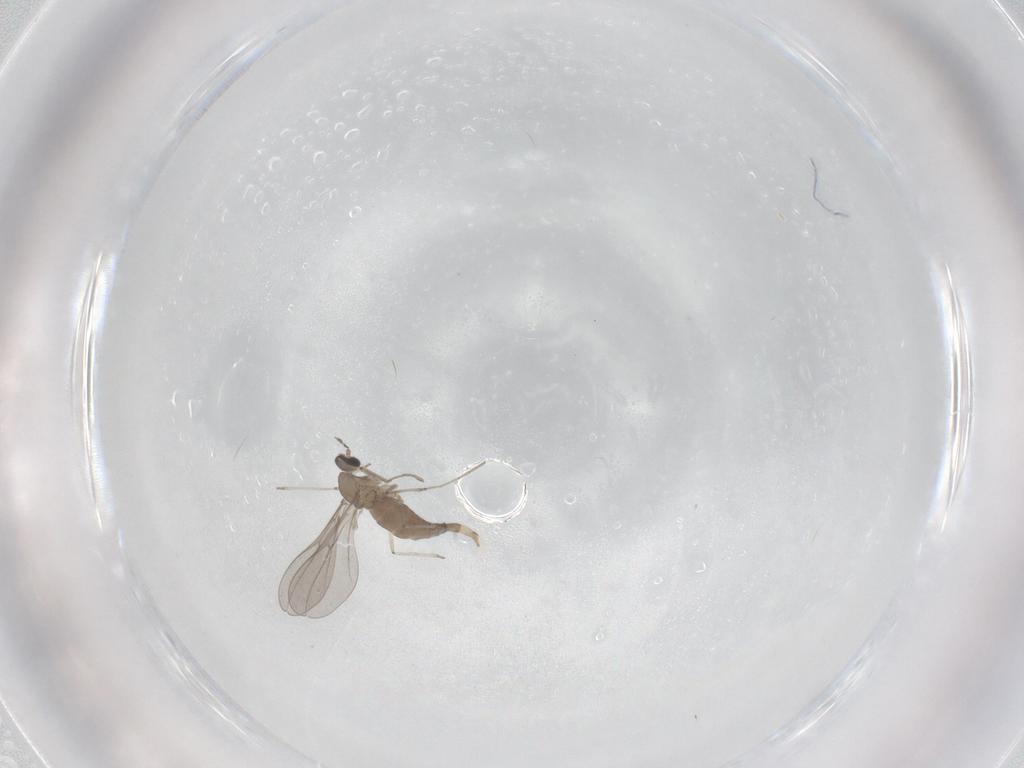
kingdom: Animalia
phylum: Arthropoda
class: Insecta
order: Diptera
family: Cecidomyiidae
